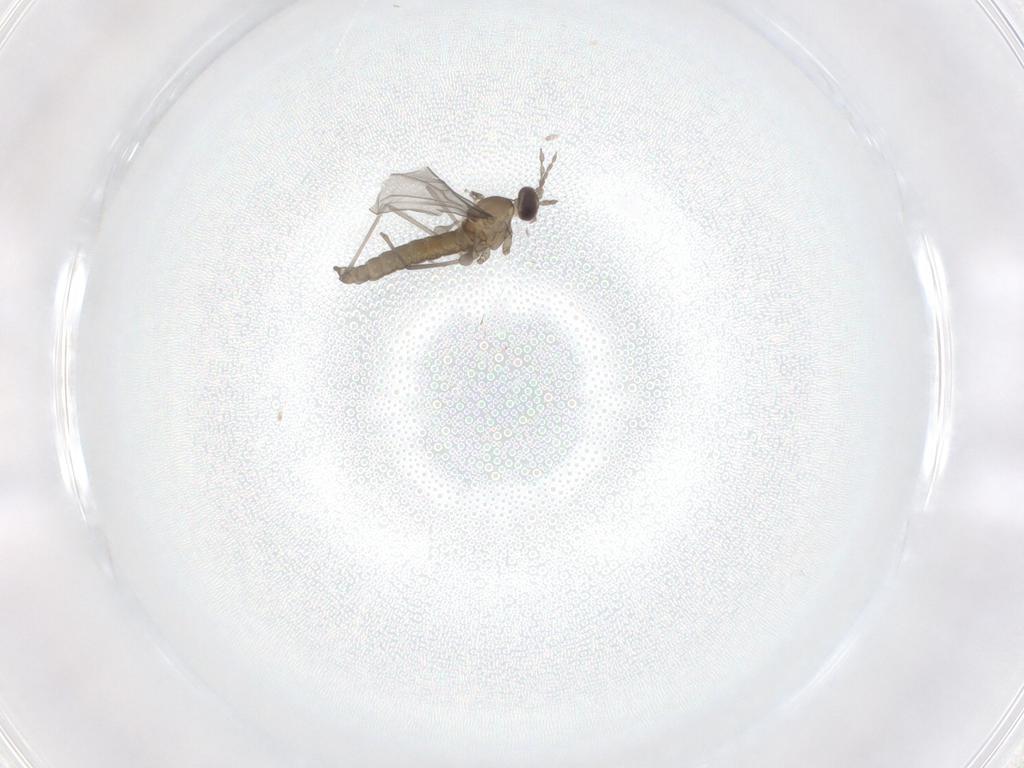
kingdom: Animalia
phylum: Arthropoda
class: Insecta
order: Diptera
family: Cecidomyiidae
